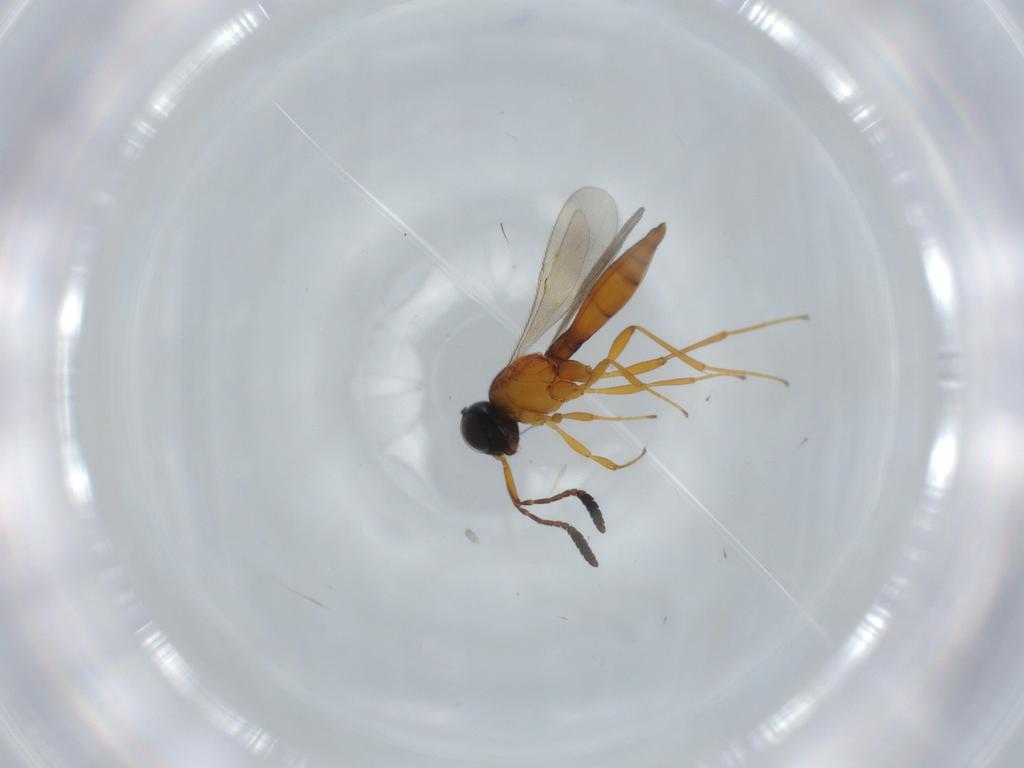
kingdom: Animalia
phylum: Arthropoda
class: Insecta
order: Hymenoptera
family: Scelionidae
